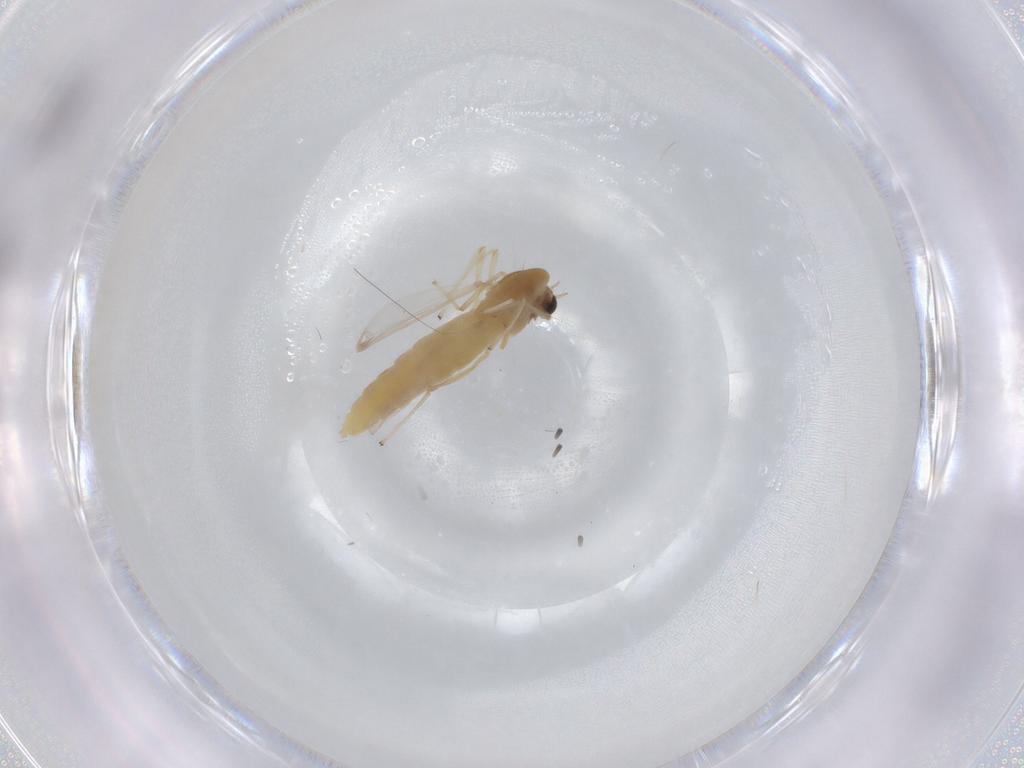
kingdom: Animalia
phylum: Arthropoda
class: Insecta
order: Diptera
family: Chironomidae
